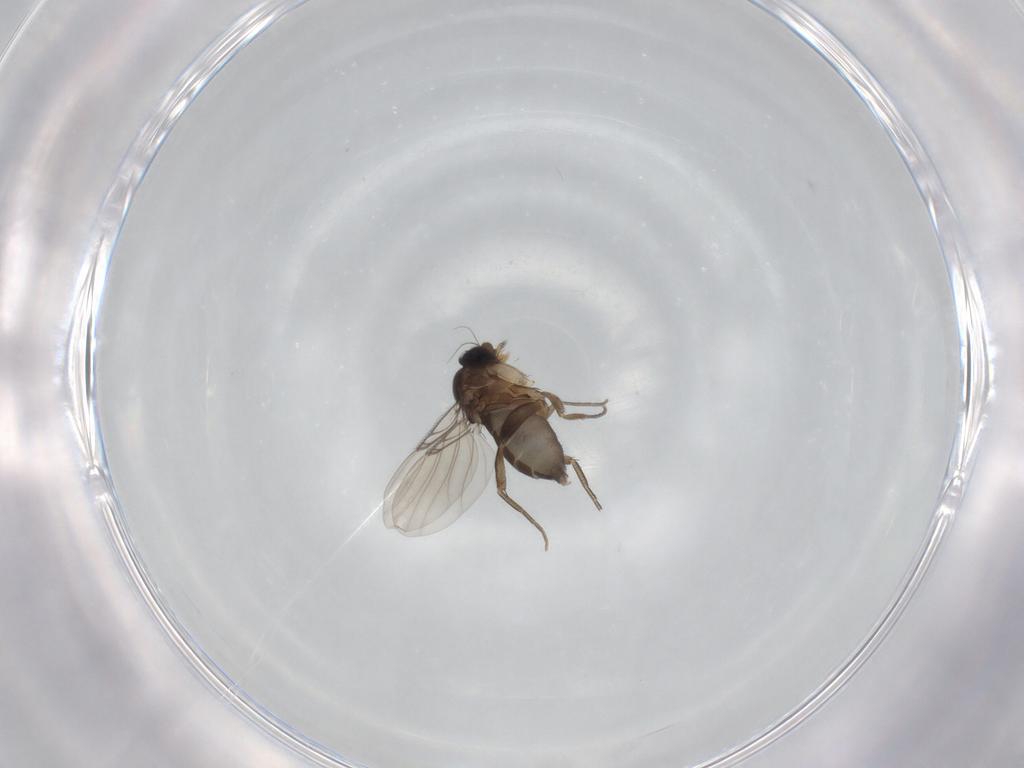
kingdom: Animalia
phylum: Arthropoda
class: Insecta
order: Diptera
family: Phoridae
